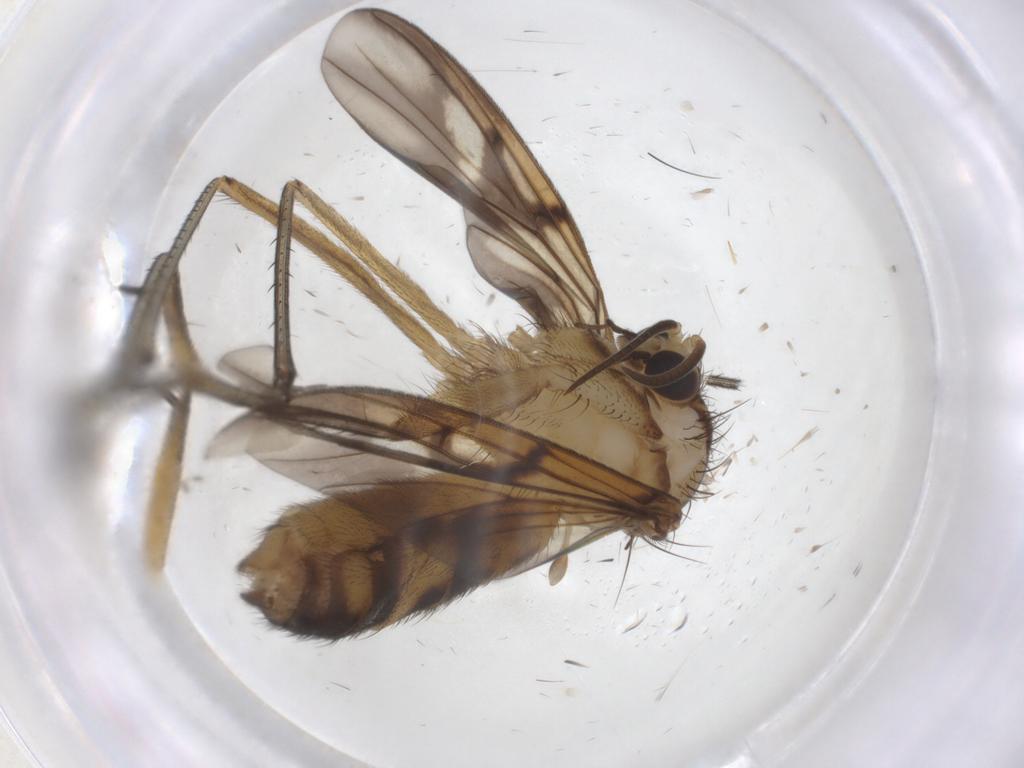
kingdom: Animalia
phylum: Arthropoda
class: Insecta
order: Diptera
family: Mycetophilidae
